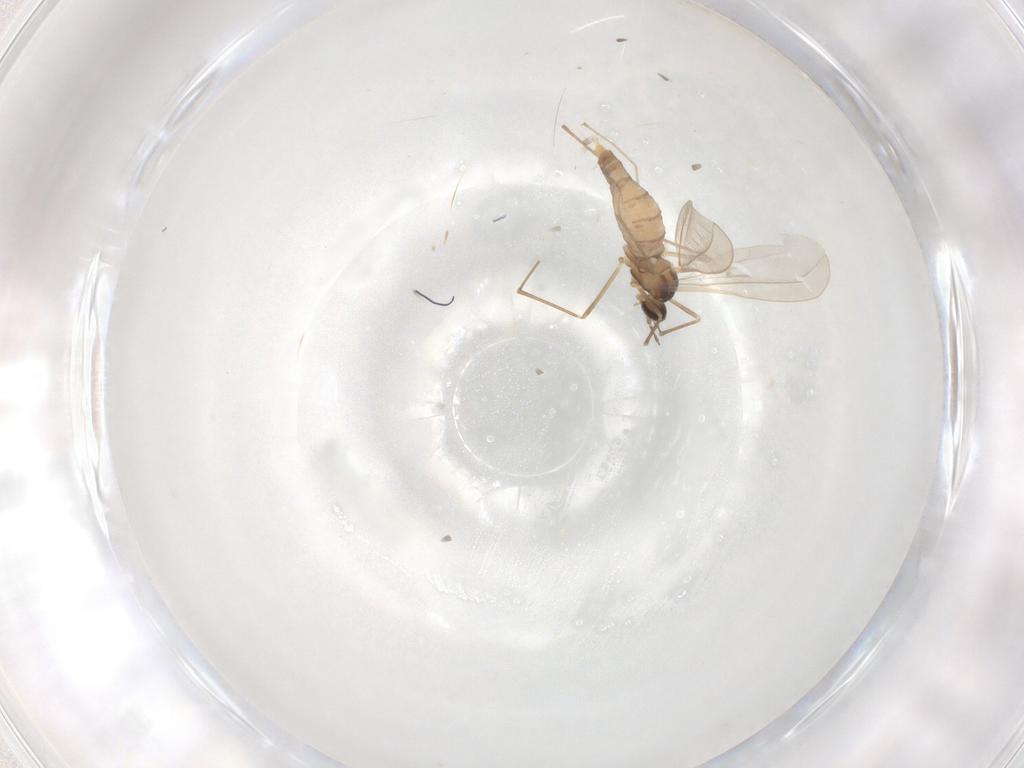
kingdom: Animalia
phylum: Arthropoda
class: Insecta
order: Diptera
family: Cecidomyiidae
